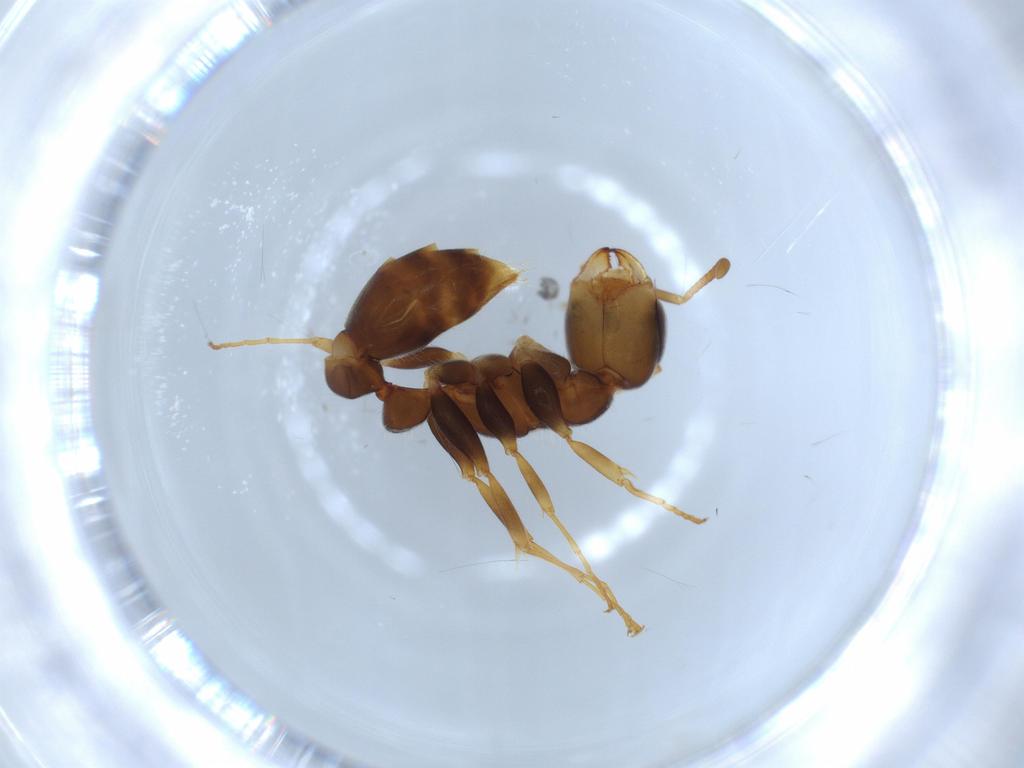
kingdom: Animalia
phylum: Arthropoda
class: Insecta
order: Hymenoptera
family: Formicidae
